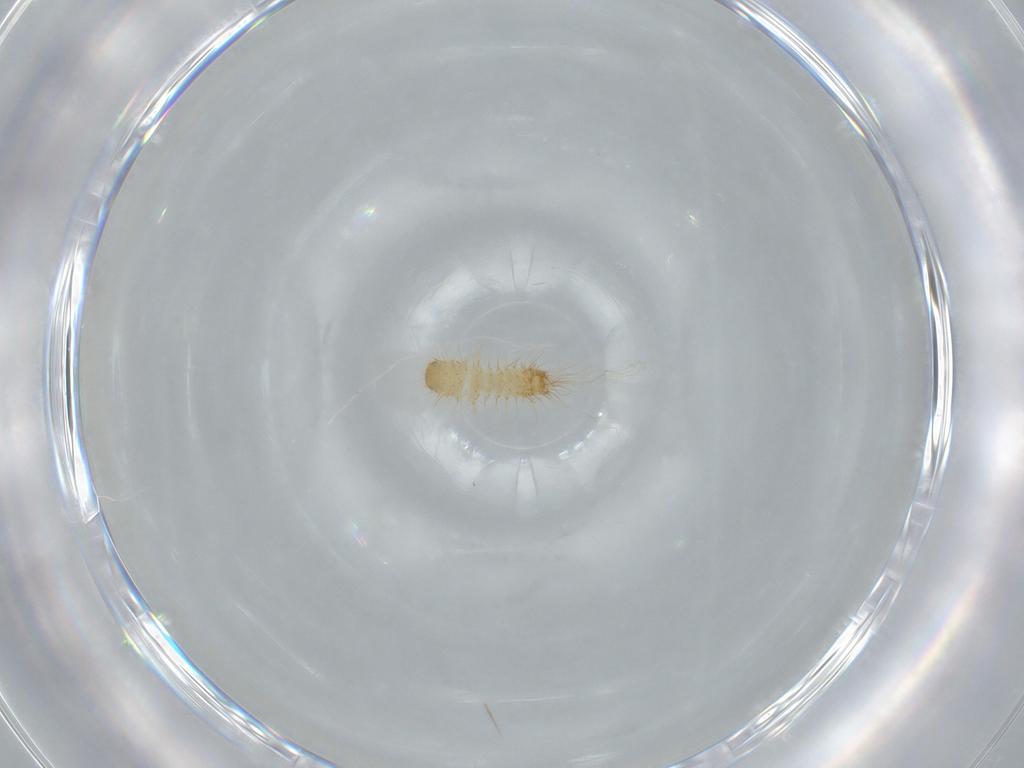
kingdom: Animalia
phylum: Arthropoda
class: Insecta
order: Coleoptera
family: Dermestidae
